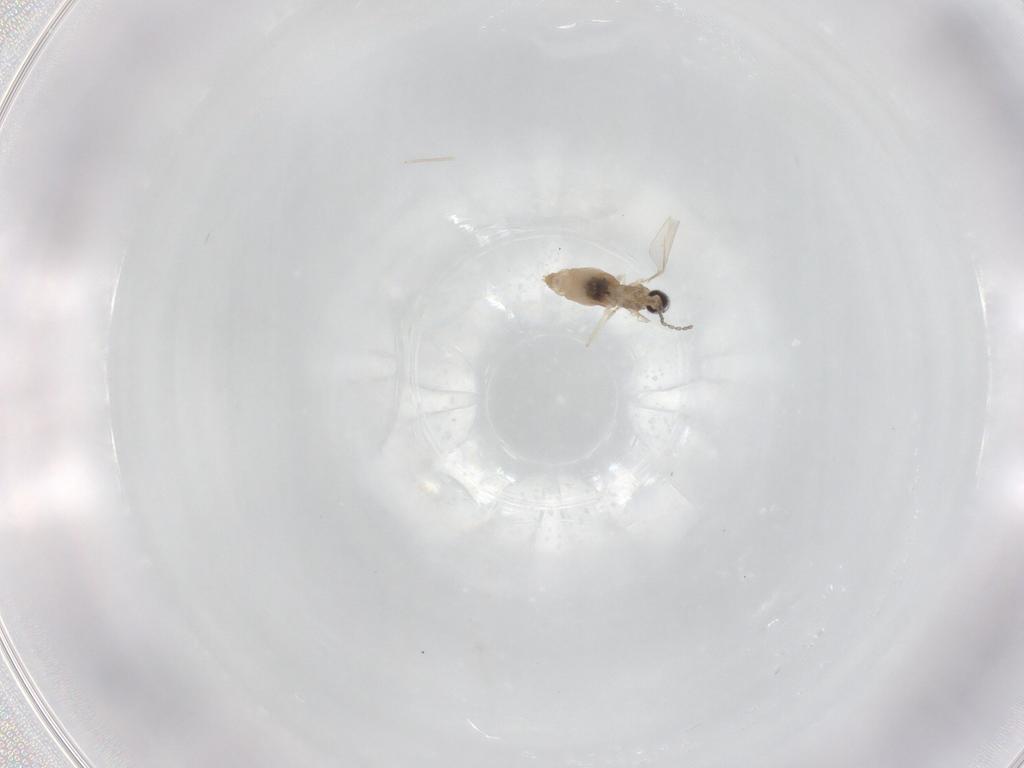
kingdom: Animalia
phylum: Arthropoda
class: Insecta
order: Diptera
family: Cecidomyiidae
